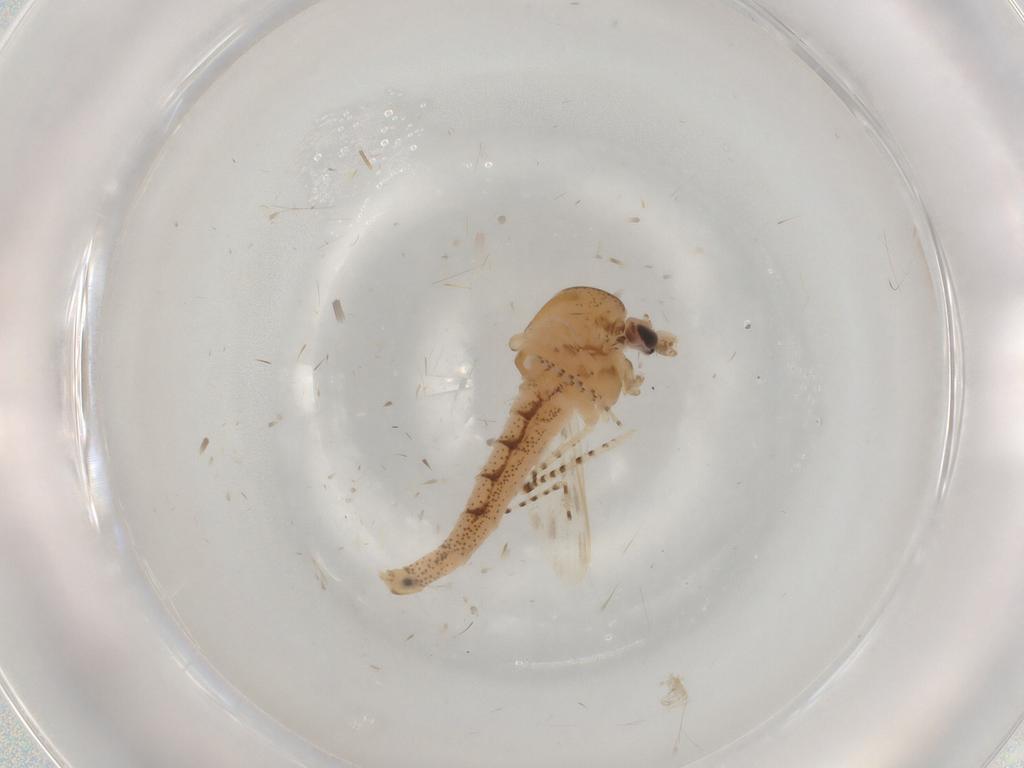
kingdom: Animalia
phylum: Arthropoda
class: Insecta
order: Diptera
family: Chaoboridae
